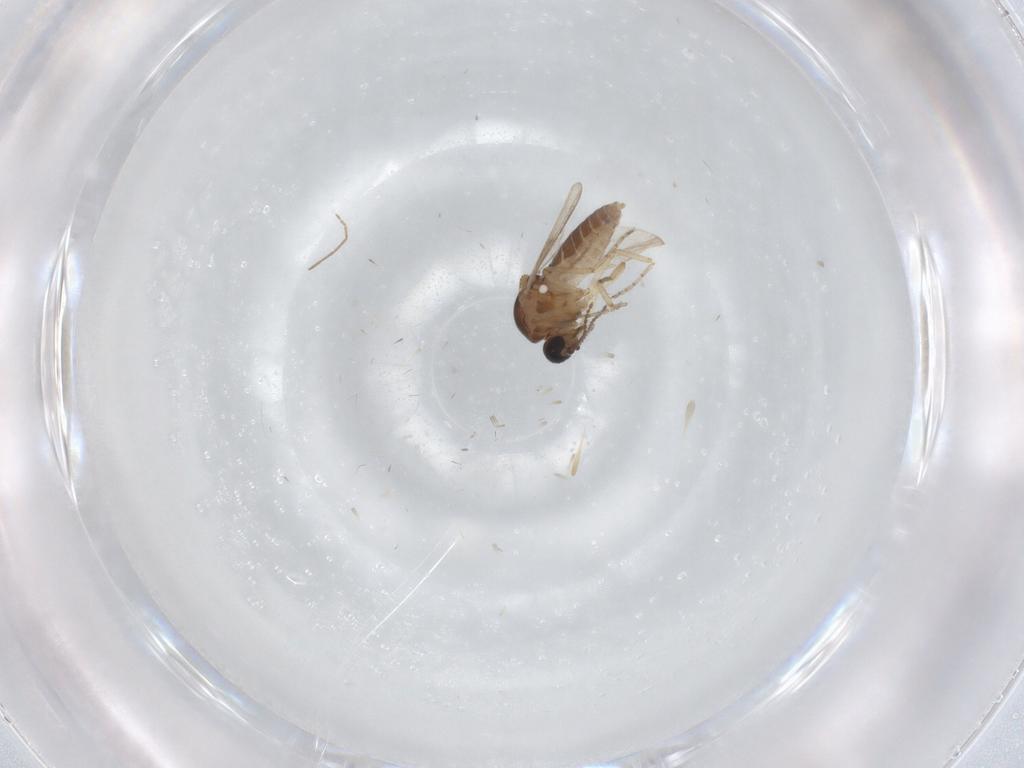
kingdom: Animalia
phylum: Arthropoda
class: Insecta
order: Diptera
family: Ceratopogonidae
